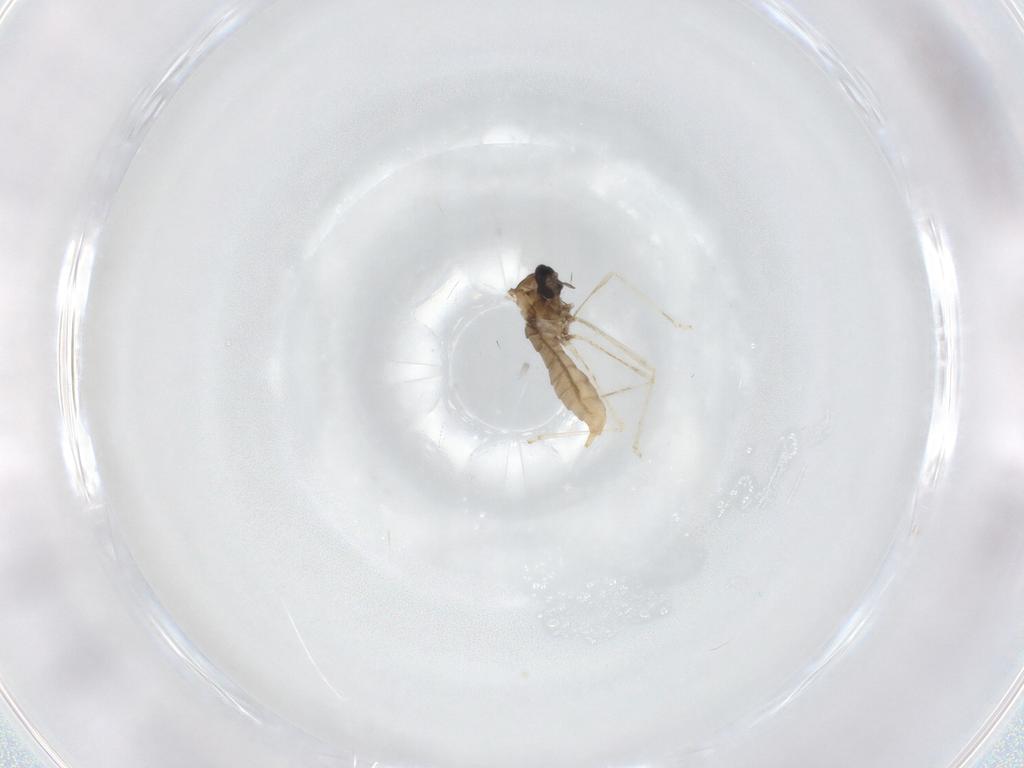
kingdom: Animalia
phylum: Arthropoda
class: Insecta
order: Diptera
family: Cecidomyiidae
